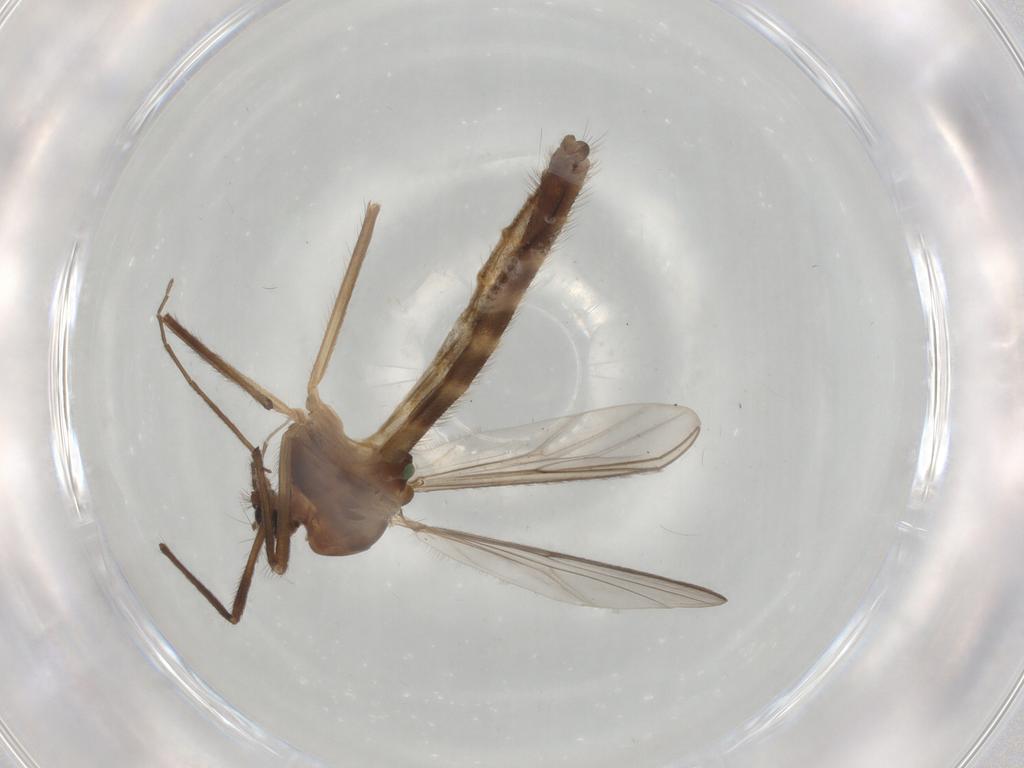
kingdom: Animalia
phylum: Arthropoda
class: Insecta
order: Diptera
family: Chironomidae
